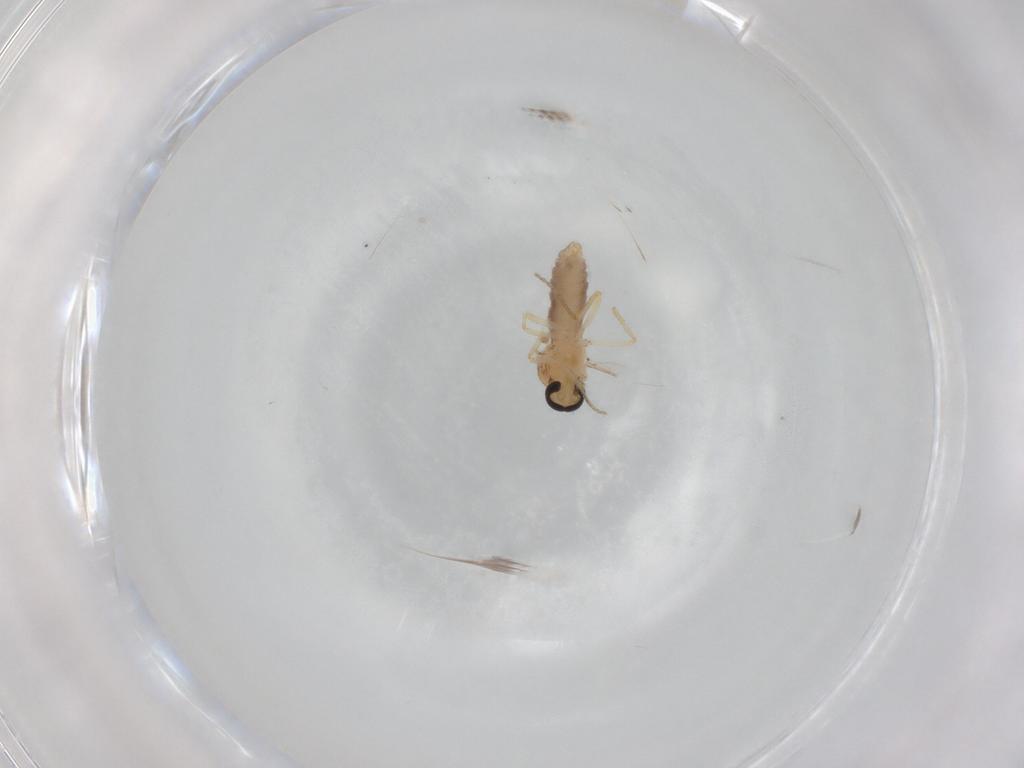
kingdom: Animalia
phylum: Arthropoda
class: Insecta
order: Diptera
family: Ceratopogonidae
